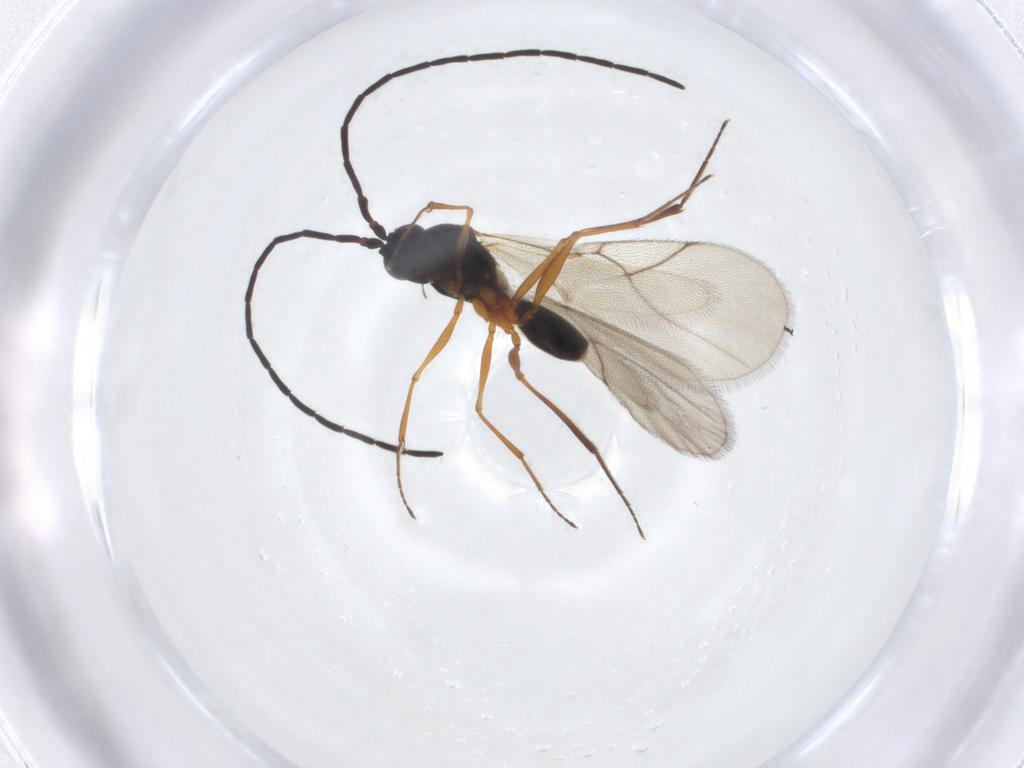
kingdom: Animalia
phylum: Arthropoda
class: Insecta
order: Hymenoptera
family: Figitidae
